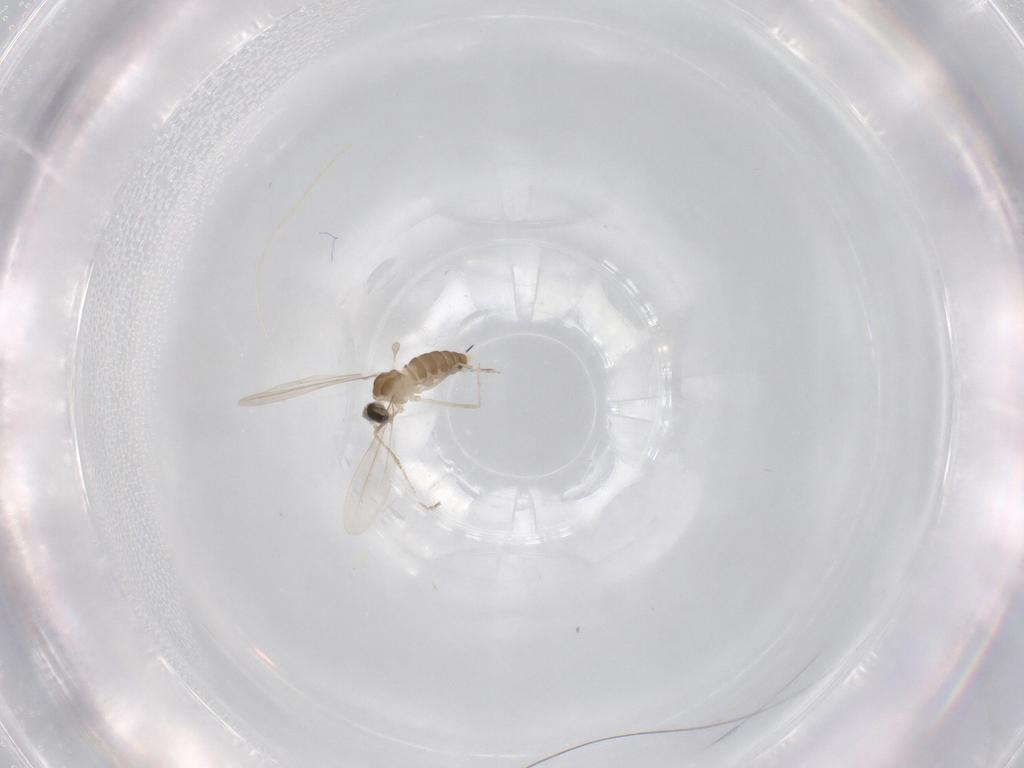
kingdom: Animalia
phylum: Arthropoda
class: Insecta
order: Diptera
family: Cecidomyiidae
